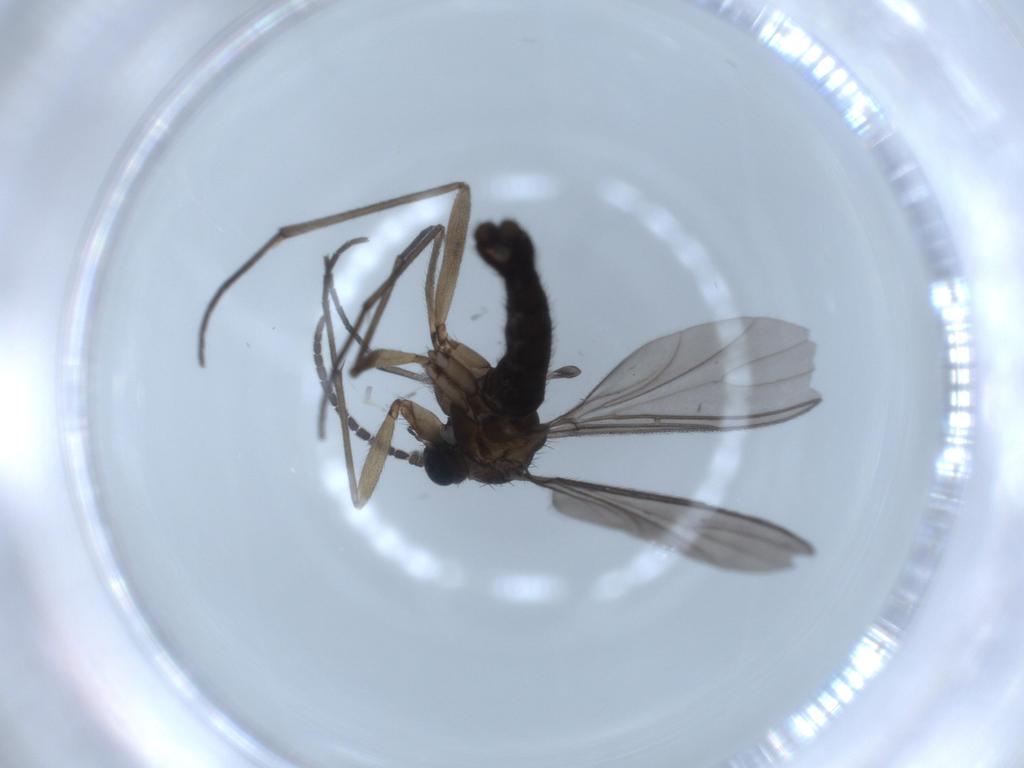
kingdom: Animalia
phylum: Arthropoda
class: Insecta
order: Diptera
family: Sciaridae
